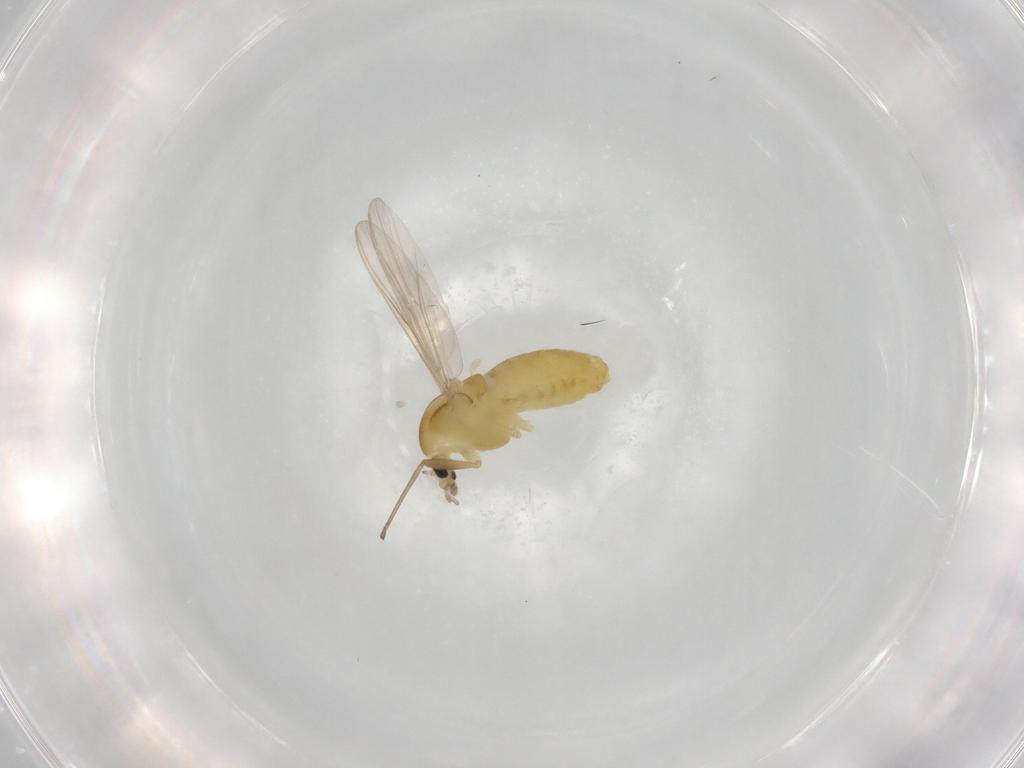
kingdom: Animalia
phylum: Arthropoda
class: Insecta
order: Diptera
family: Chironomidae
